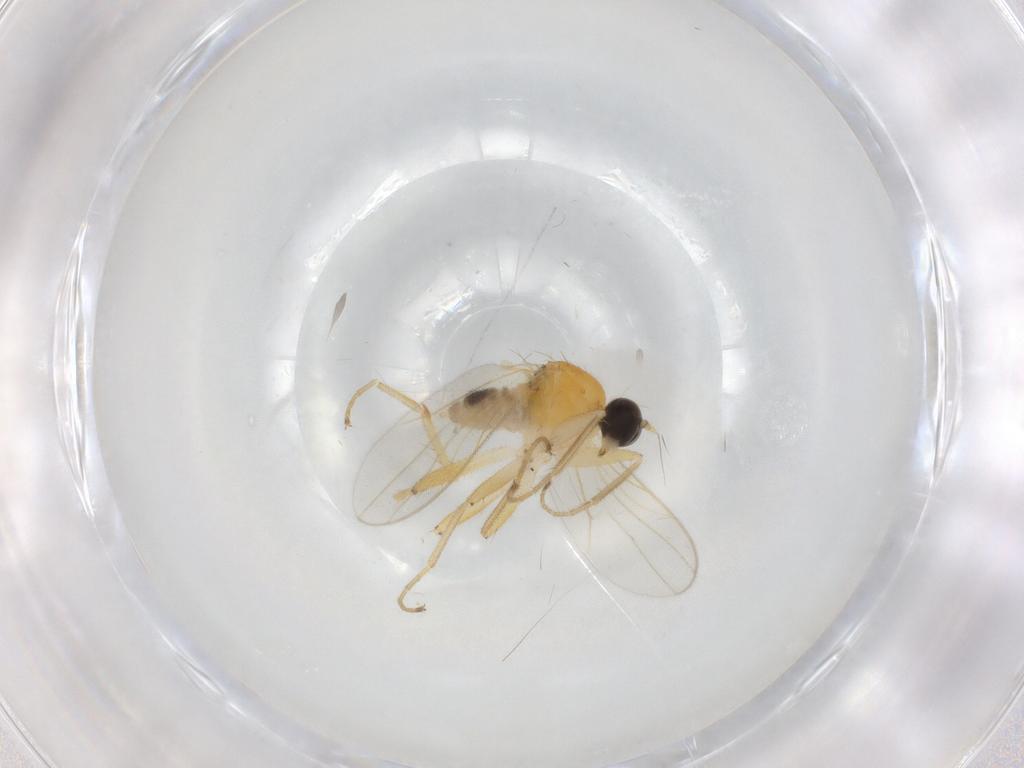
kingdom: Animalia
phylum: Arthropoda
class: Insecta
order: Diptera
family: Hybotidae
